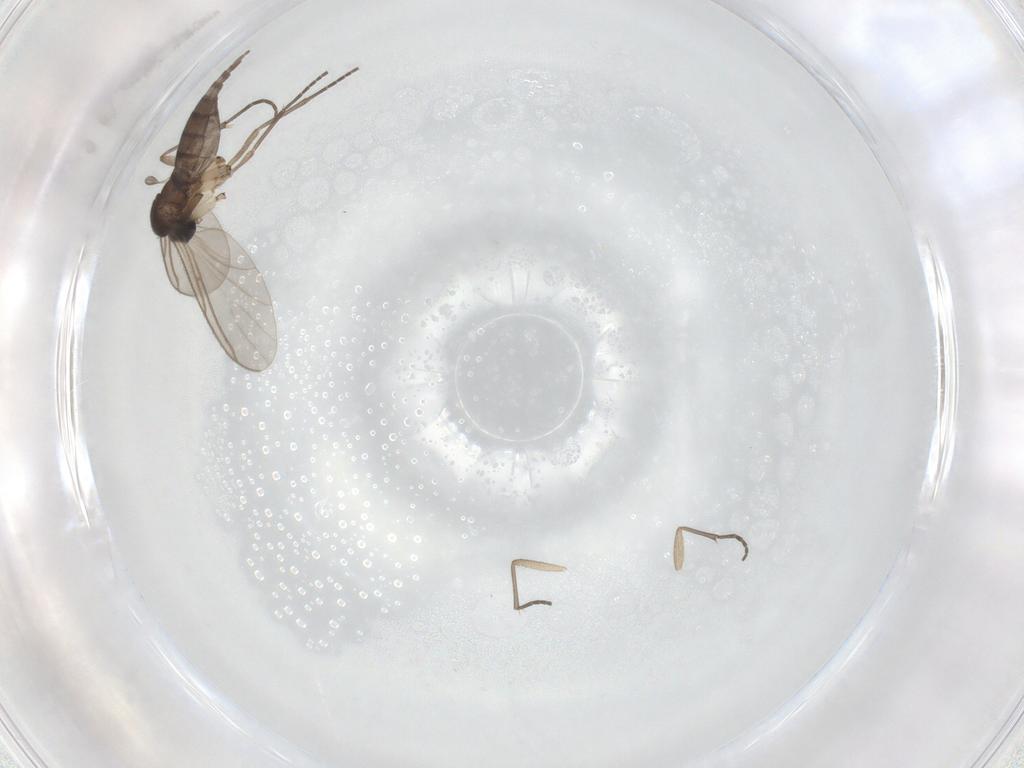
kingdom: Animalia
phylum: Arthropoda
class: Insecta
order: Diptera
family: Sciaridae
